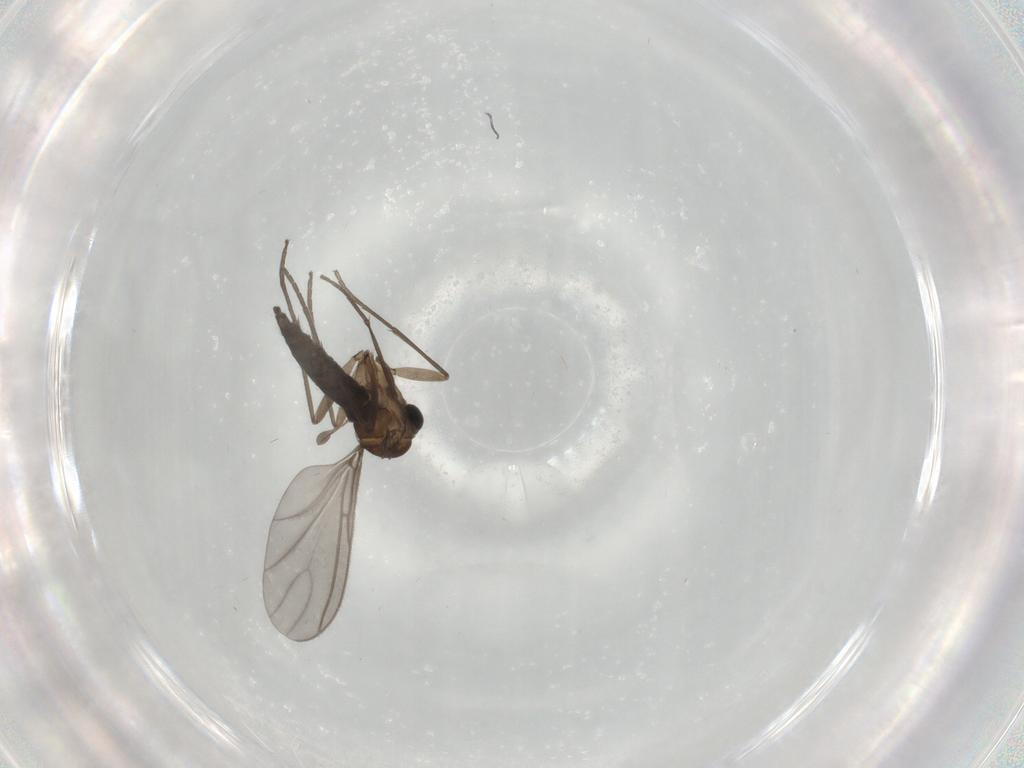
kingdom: Animalia
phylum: Arthropoda
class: Insecta
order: Diptera
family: Sciaridae
